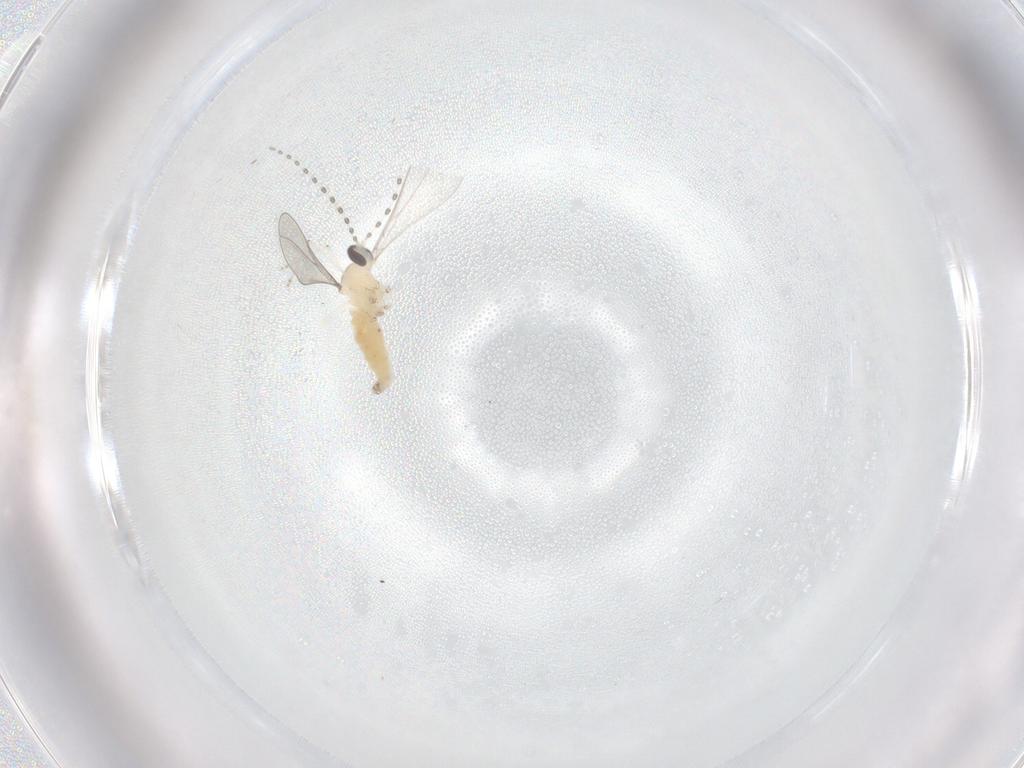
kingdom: Animalia
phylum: Arthropoda
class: Insecta
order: Diptera
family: Cecidomyiidae
